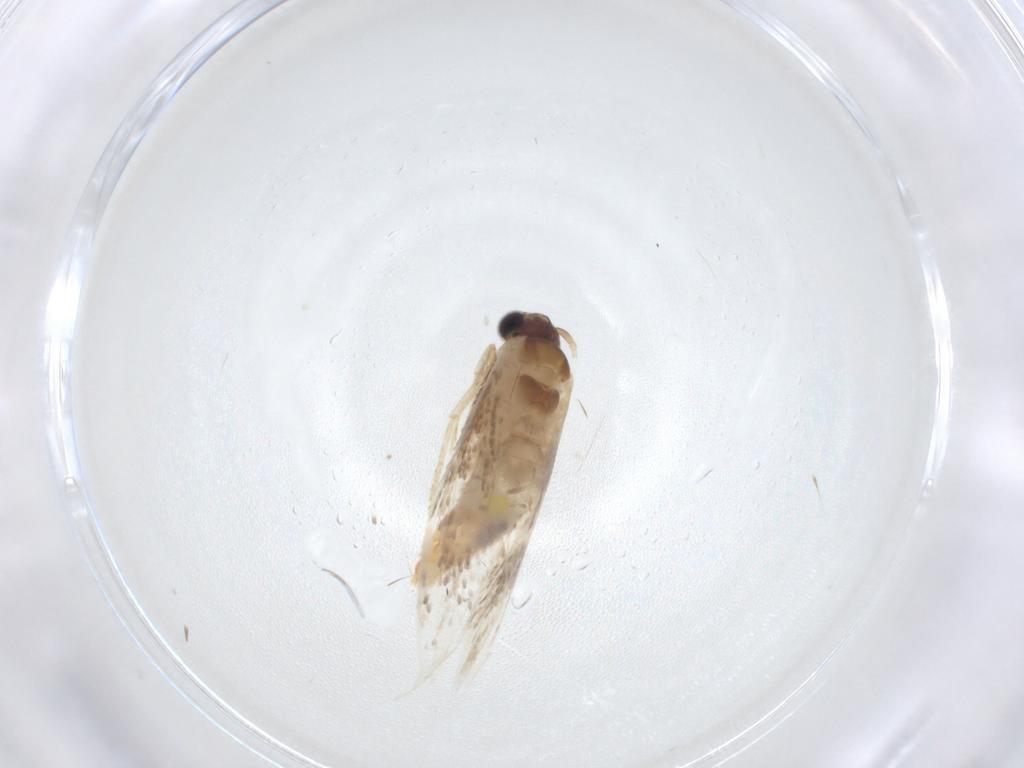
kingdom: Animalia
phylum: Arthropoda
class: Insecta
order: Lepidoptera
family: Tineidae
